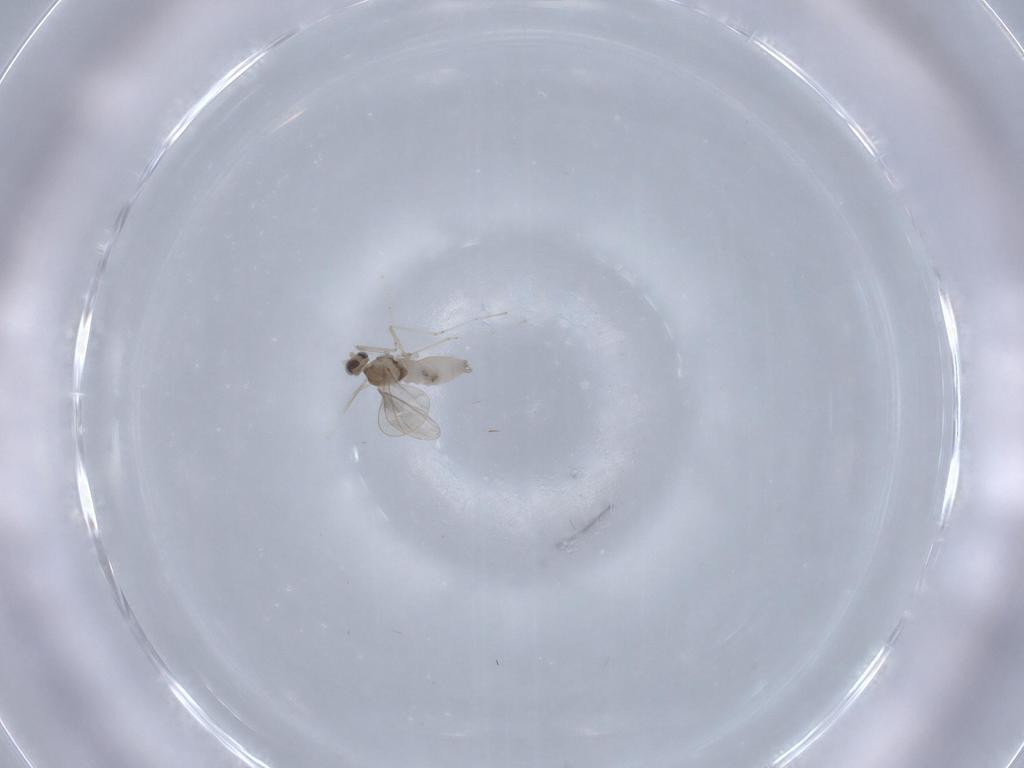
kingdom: Animalia
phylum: Arthropoda
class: Insecta
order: Diptera
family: Cecidomyiidae
